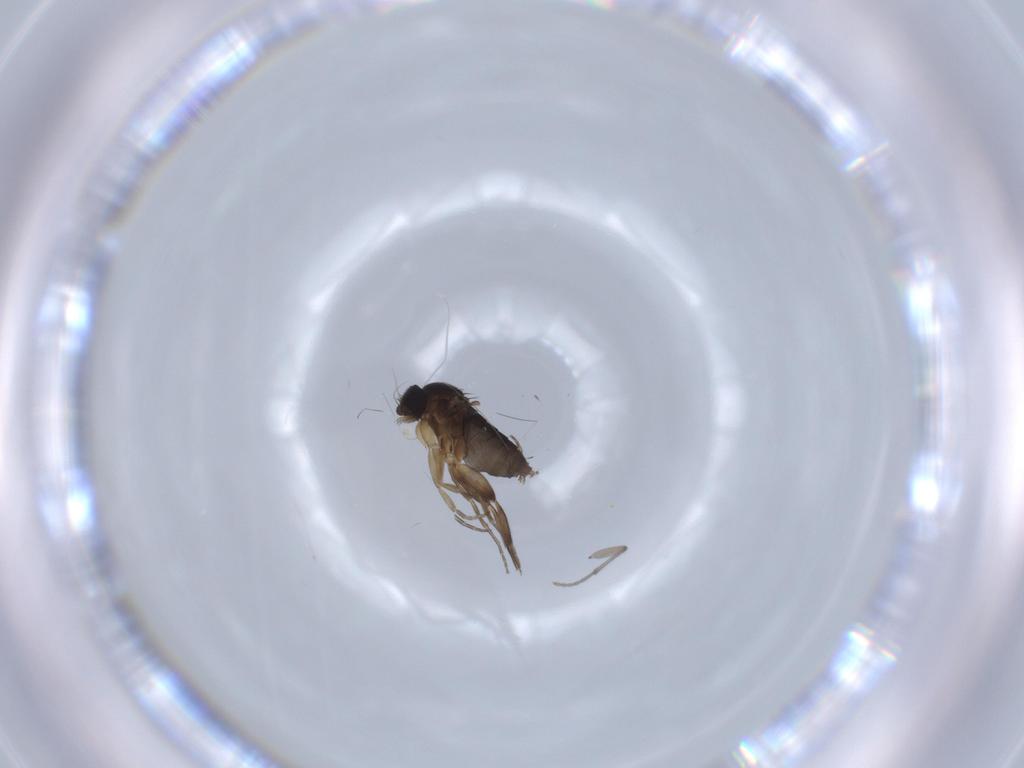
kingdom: Animalia
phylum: Arthropoda
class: Insecta
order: Diptera
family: Phoridae
